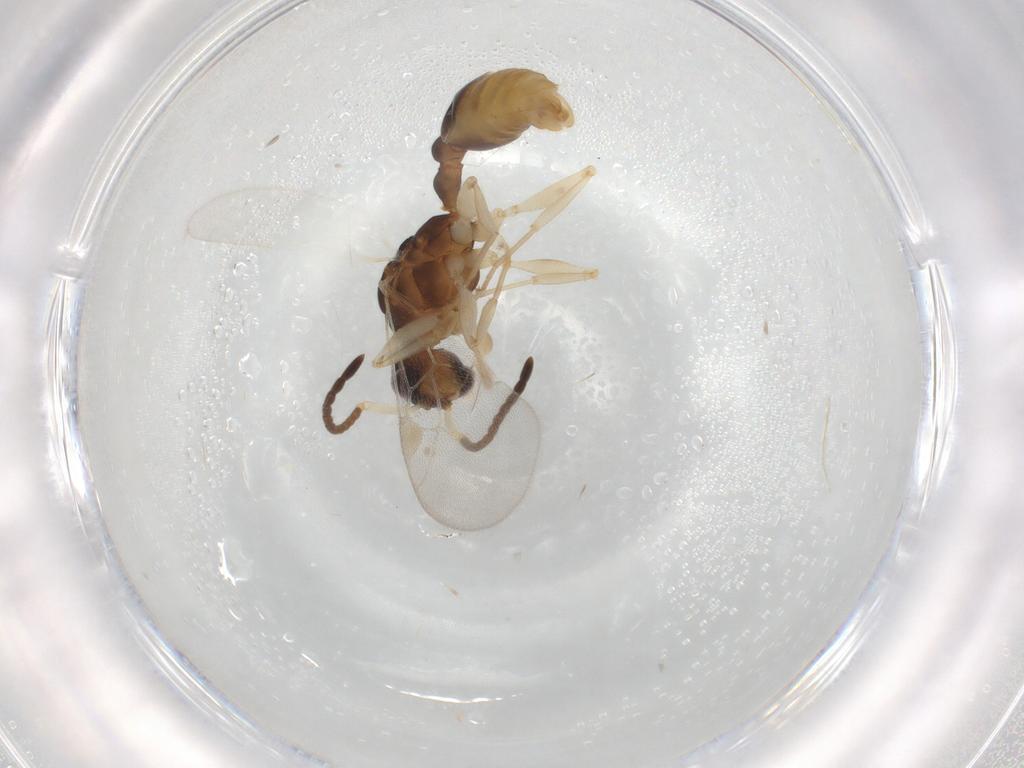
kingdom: Animalia
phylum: Arthropoda
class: Insecta
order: Hymenoptera
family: Formicidae
